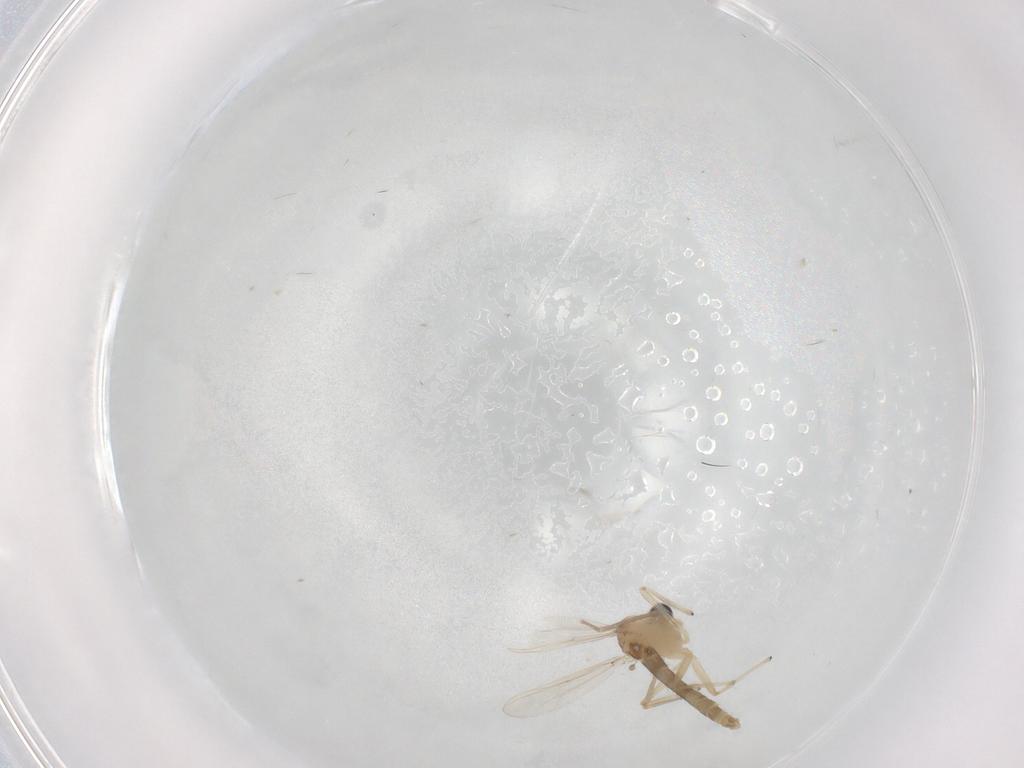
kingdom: Animalia
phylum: Arthropoda
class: Insecta
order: Diptera
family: Chironomidae
